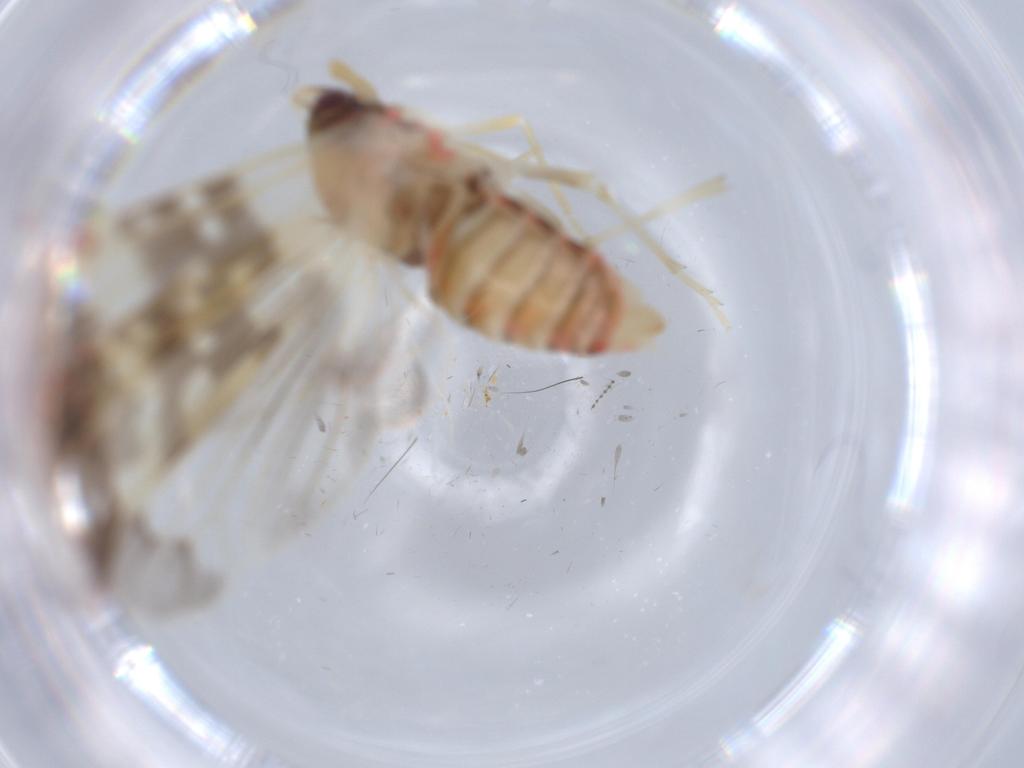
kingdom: Animalia
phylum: Arthropoda
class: Insecta
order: Hemiptera
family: Derbidae
